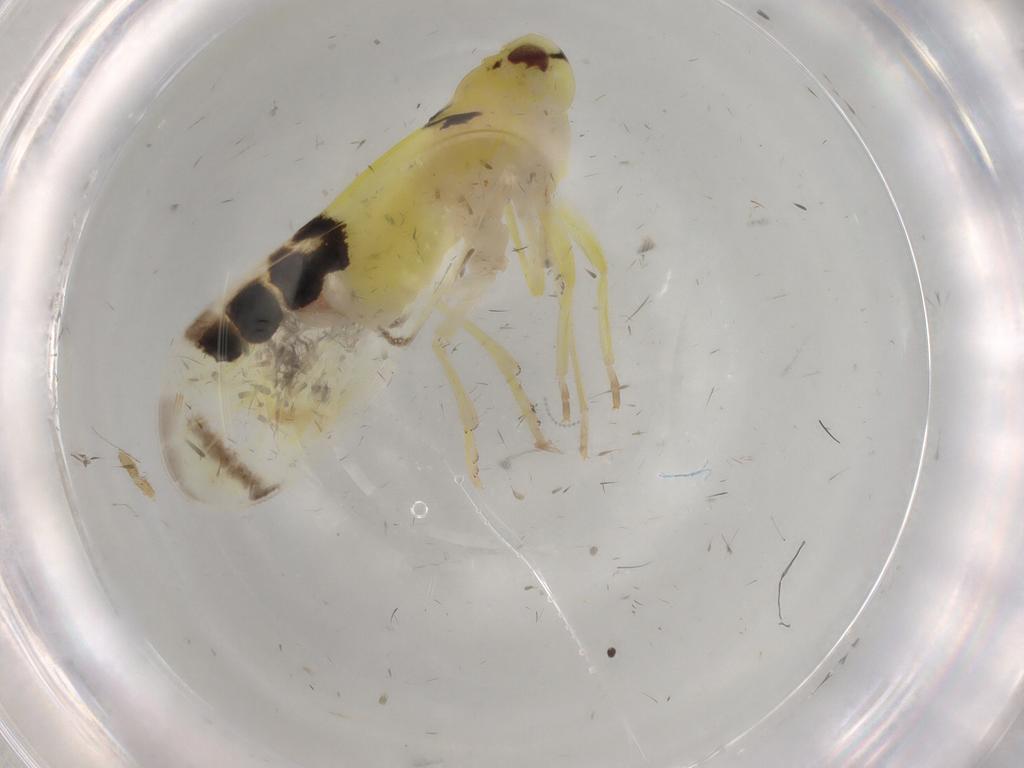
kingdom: Animalia
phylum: Arthropoda
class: Insecta
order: Hemiptera
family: Derbidae
